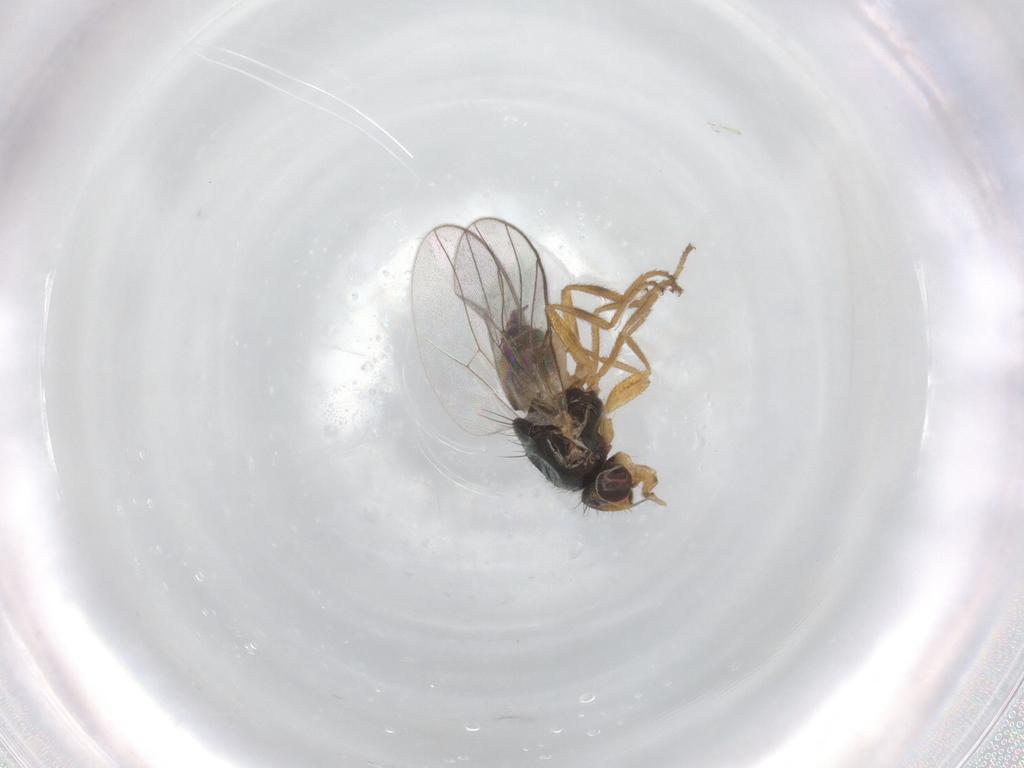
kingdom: Animalia
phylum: Arthropoda
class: Insecta
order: Diptera
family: Chloropidae
